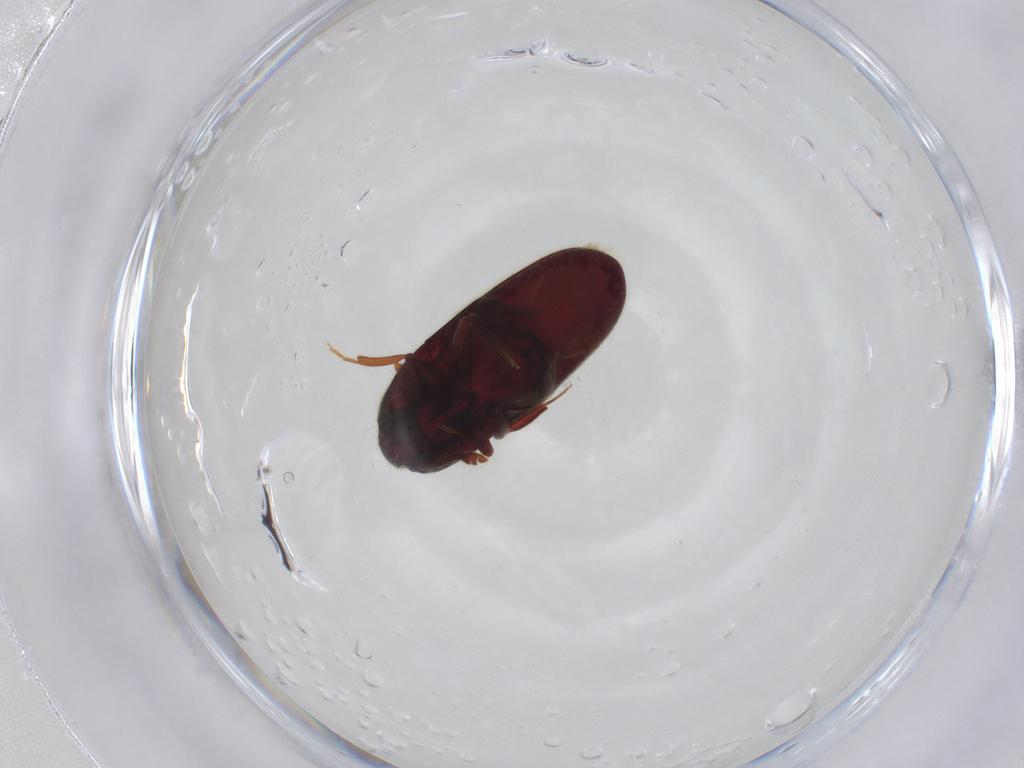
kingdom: Animalia
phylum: Arthropoda
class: Insecta
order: Coleoptera
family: Throscidae
